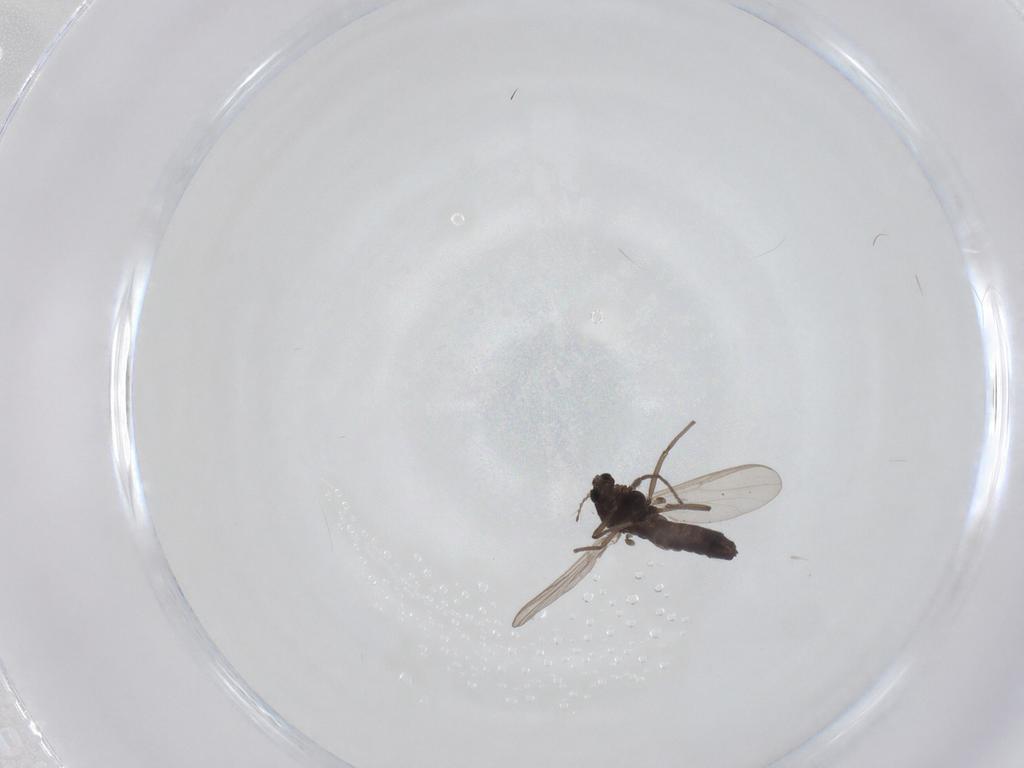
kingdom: Animalia
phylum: Arthropoda
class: Insecta
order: Diptera
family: Chironomidae
